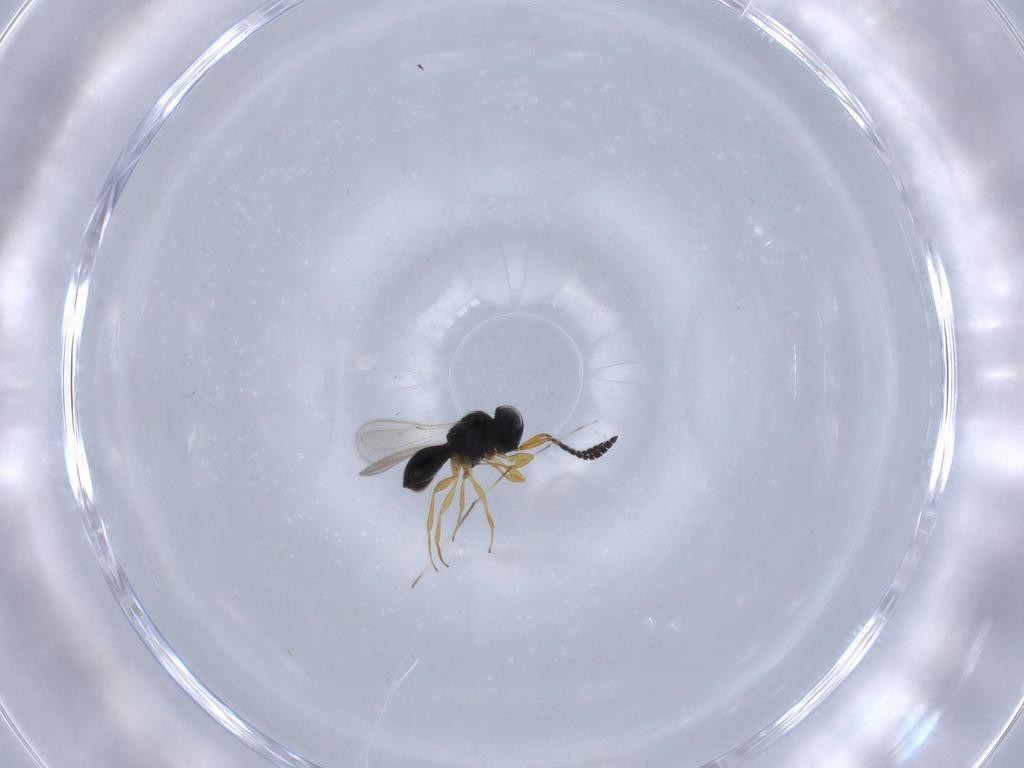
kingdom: Animalia
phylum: Arthropoda
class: Insecta
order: Hymenoptera
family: Scelionidae
